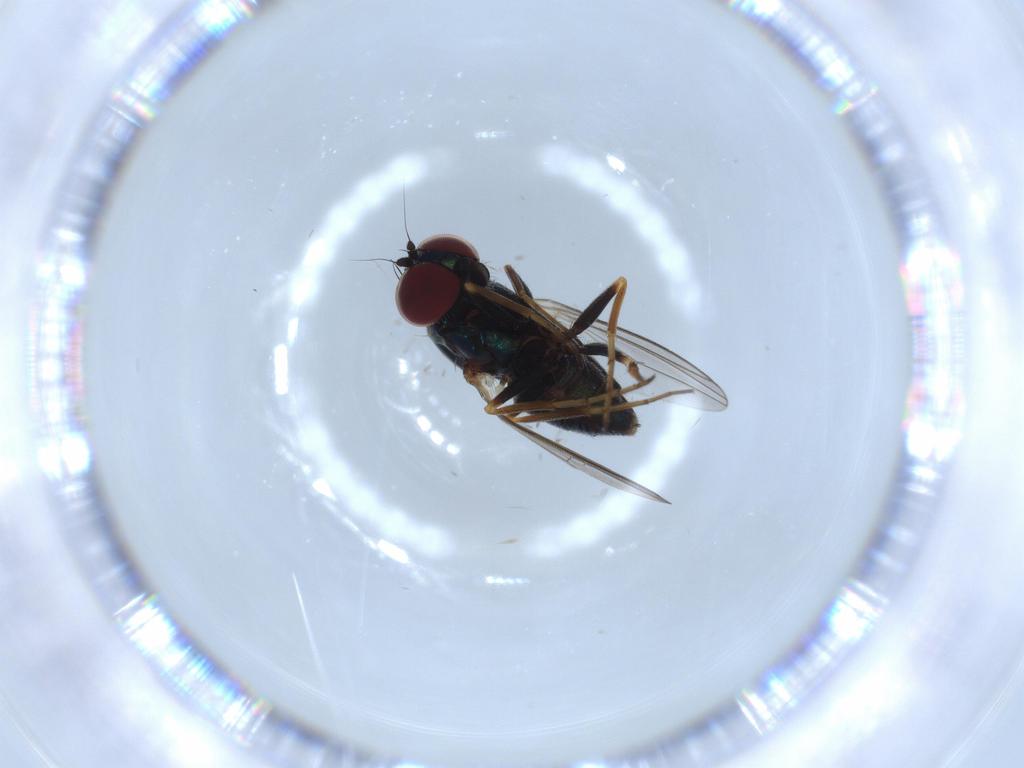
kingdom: Animalia
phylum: Arthropoda
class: Insecta
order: Diptera
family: Dolichopodidae
